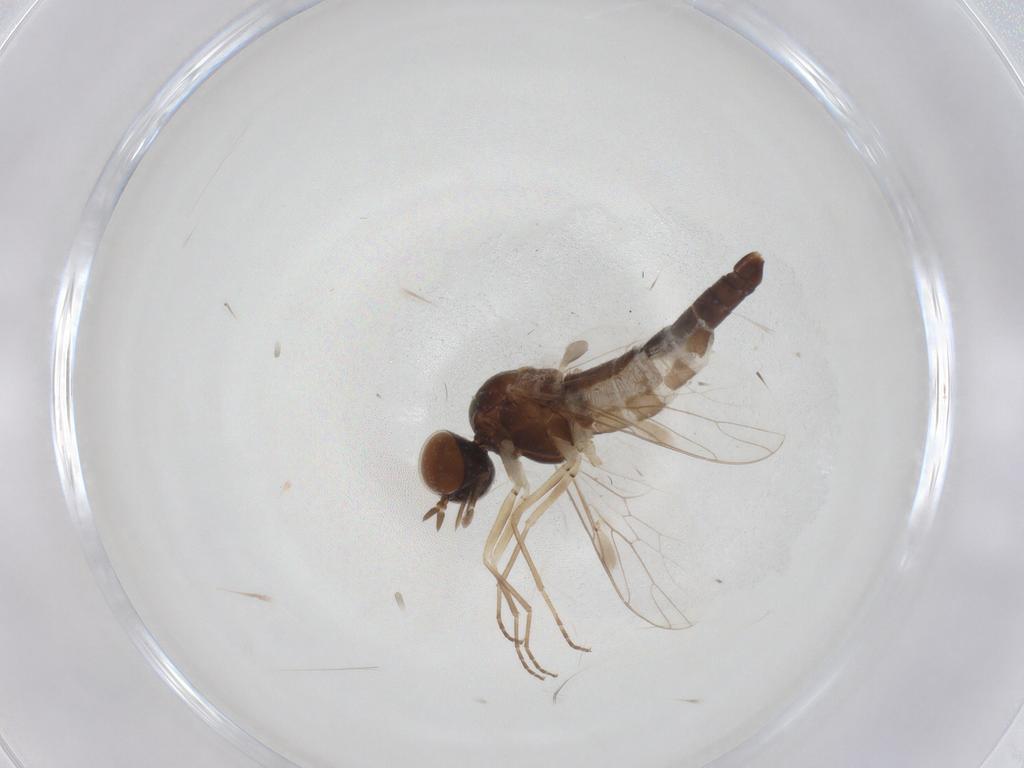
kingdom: Animalia
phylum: Arthropoda
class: Insecta
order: Diptera
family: Scenopinidae
